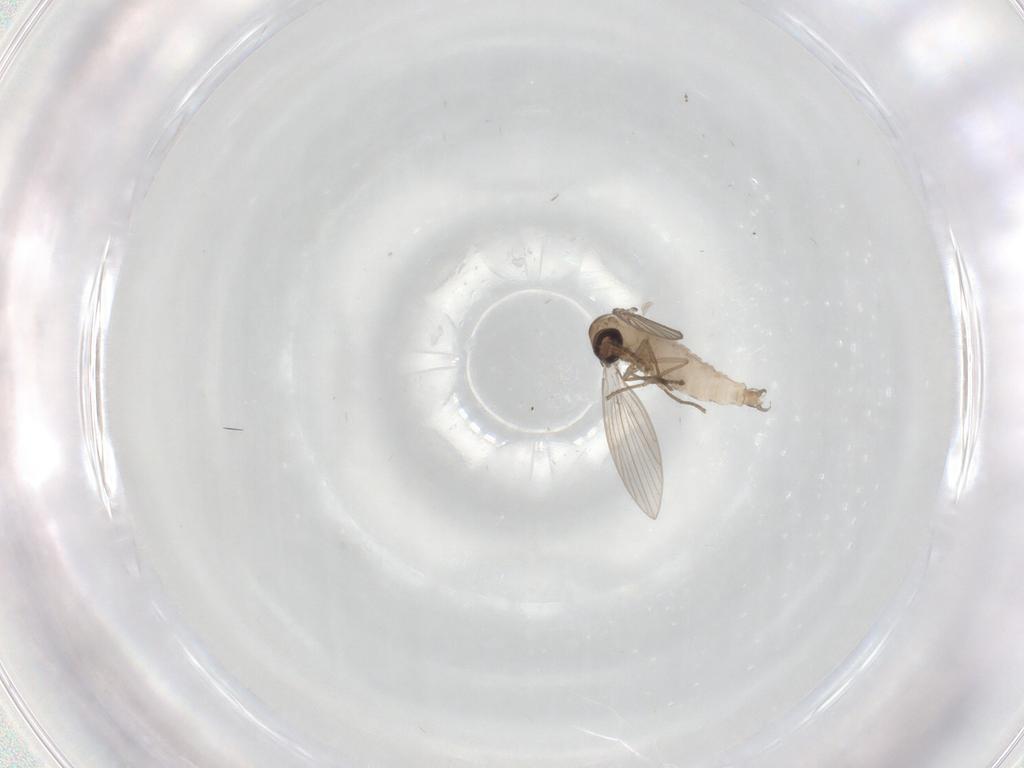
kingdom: Animalia
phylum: Arthropoda
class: Insecta
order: Diptera
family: Psychodidae
